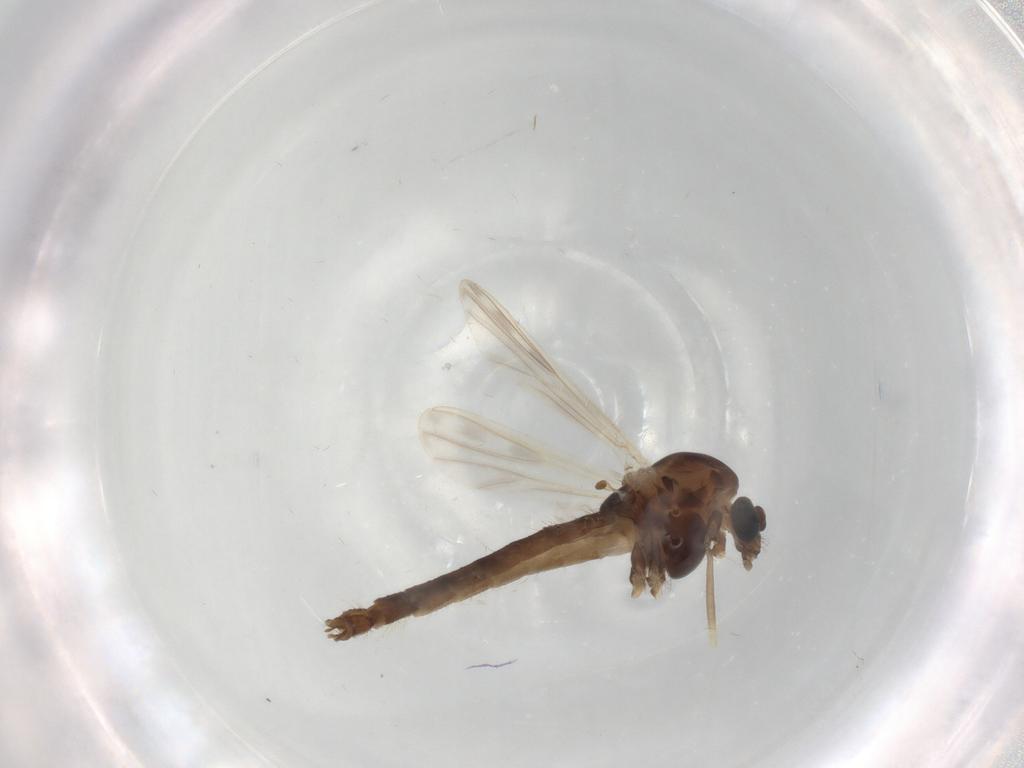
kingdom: Animalia
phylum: Arthropoda
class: Insecta
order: Diptera
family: Chironomidae
